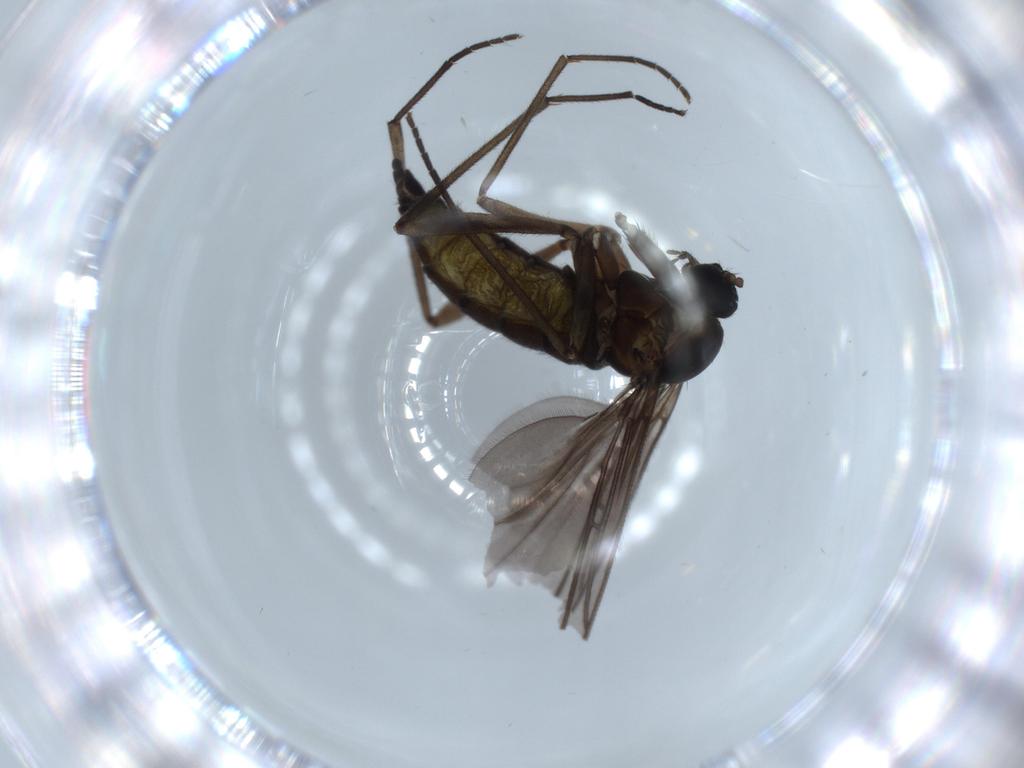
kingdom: Animalia
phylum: Arthropoda
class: Insecta
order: Diptera
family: Sciaridae
